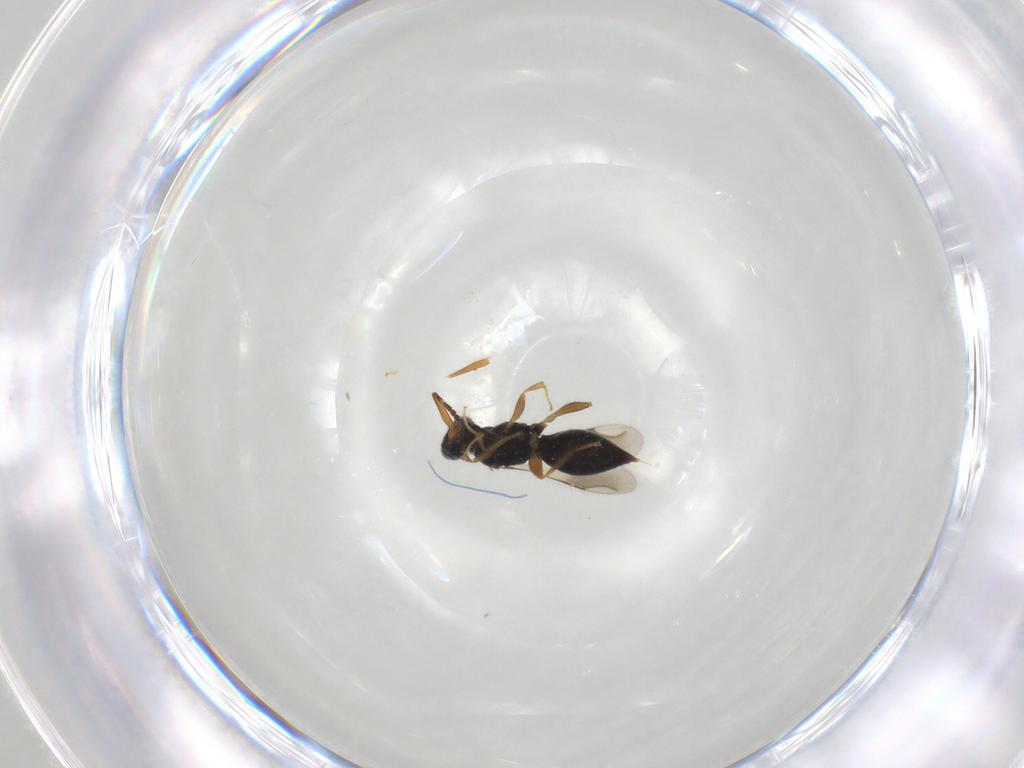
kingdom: Animalia
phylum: Arthropoda
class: Insecta
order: Hymenoptera
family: Ceraphronidae
